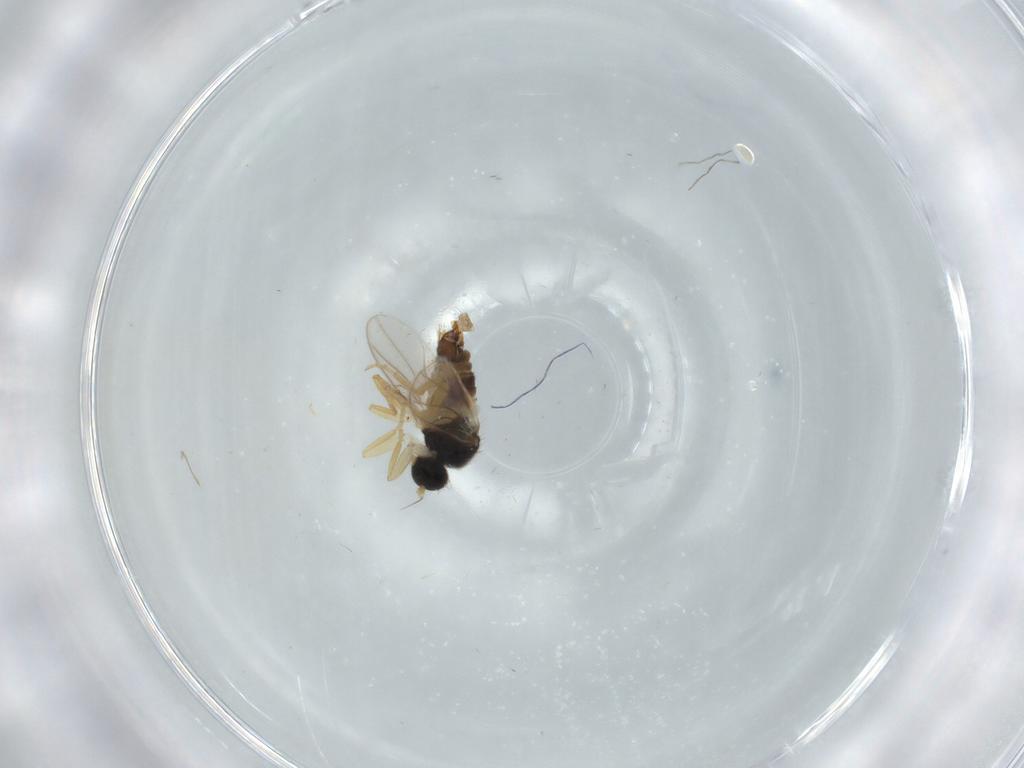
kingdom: Animalia
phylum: Arthropoda
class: Insecta
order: Diptera
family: Hybotidae
